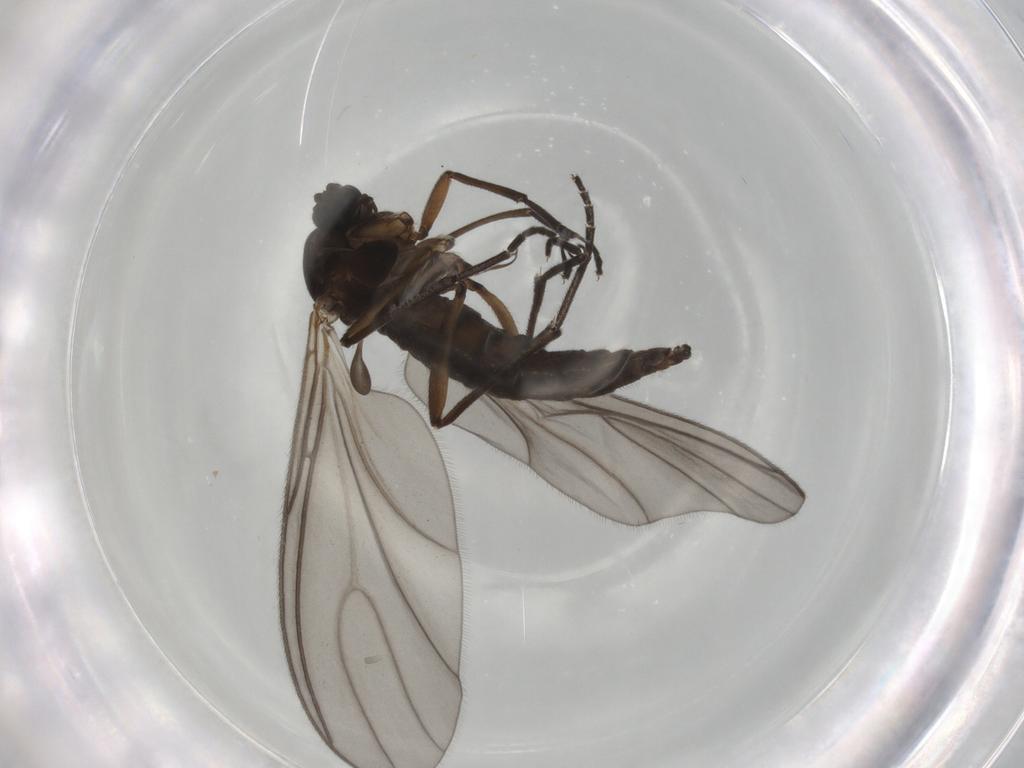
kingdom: Animalia
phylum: Arthropoda
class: Insecta
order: Diptera
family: Sciaridae
